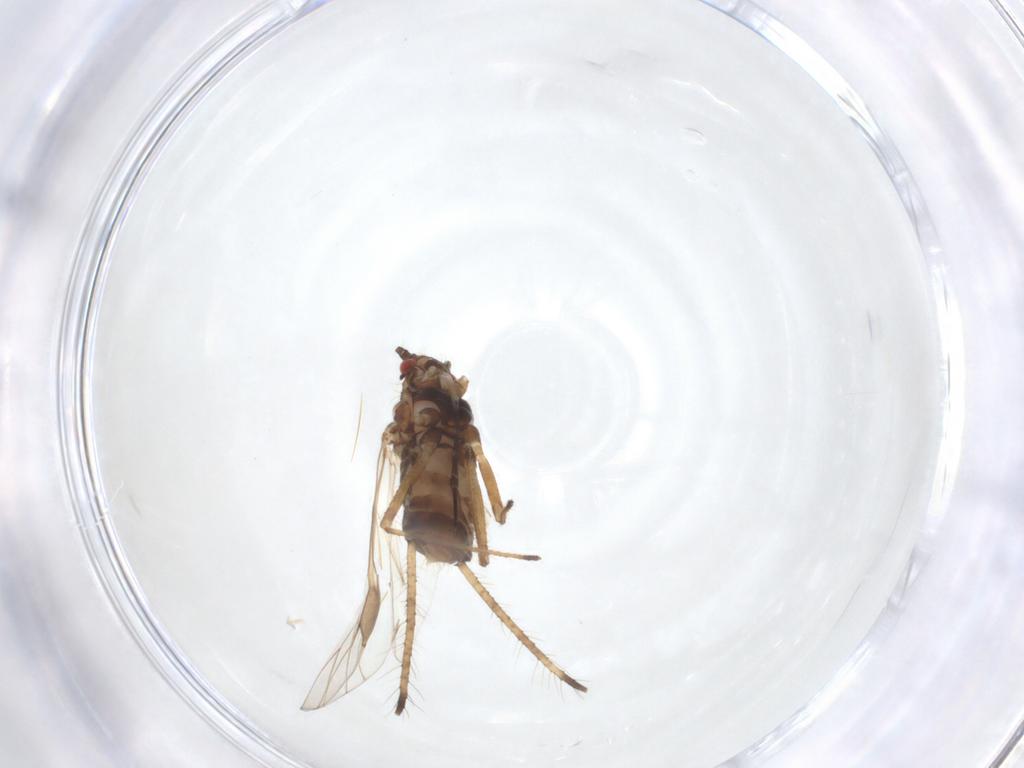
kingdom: Animalia
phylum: Arthropoda
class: Insecta
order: Hemiptera
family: Aphididae
